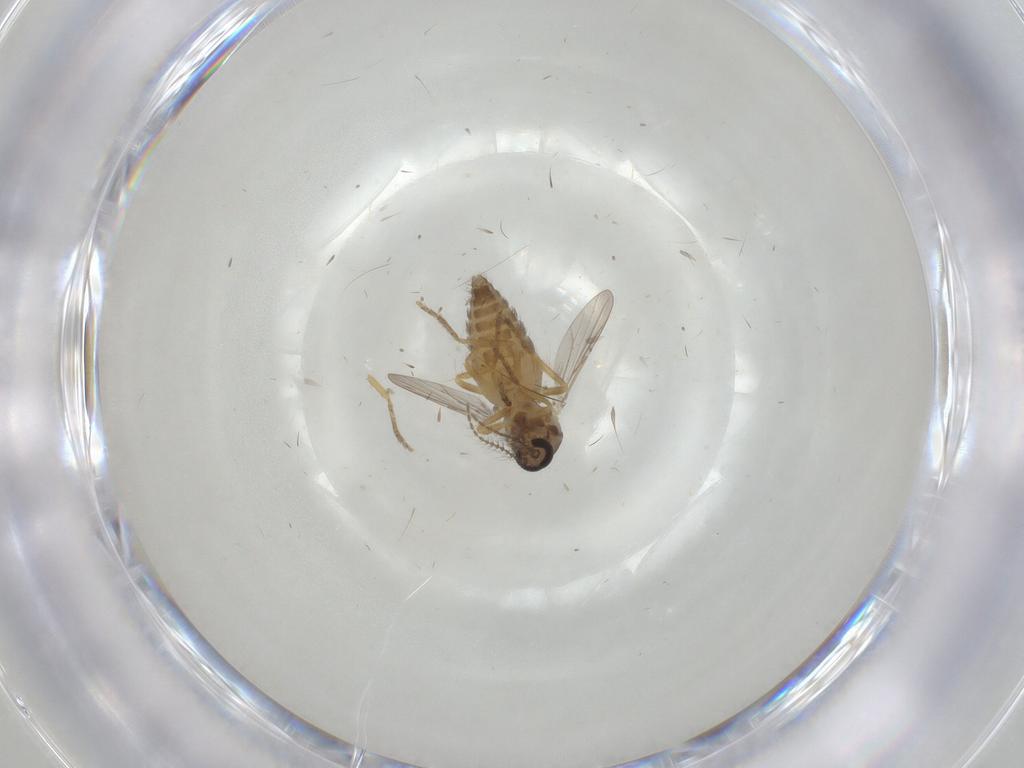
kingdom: Animalia
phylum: Arthropoda
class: Insecta
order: Diptera
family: Ceratopogonidae
